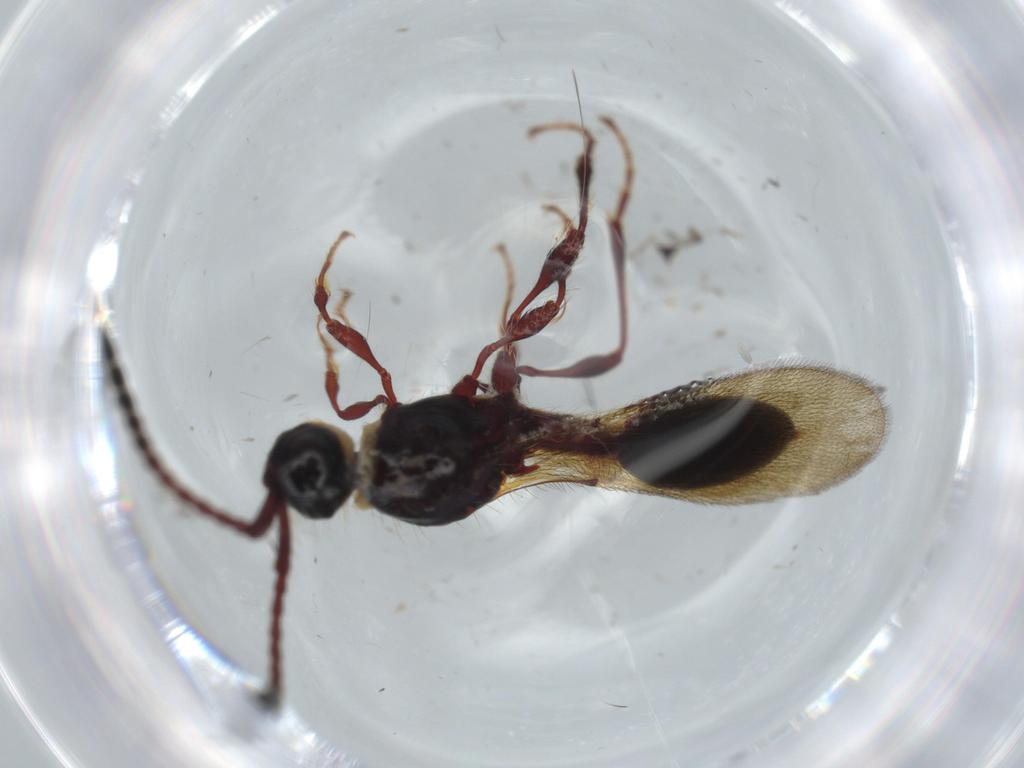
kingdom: Animalia
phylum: Arthropoda
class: Insecta
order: Hymenoptera
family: Diapriidae
